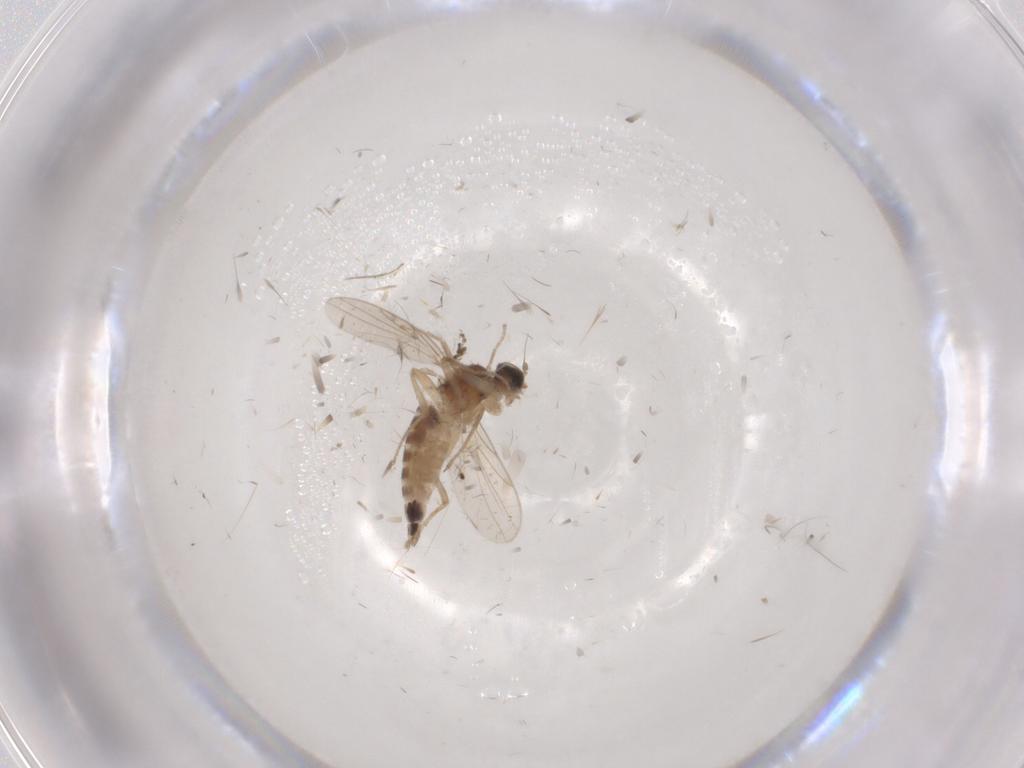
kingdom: Animalia
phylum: Arthropoda
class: Insecta
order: Diptera
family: Hybotidae
